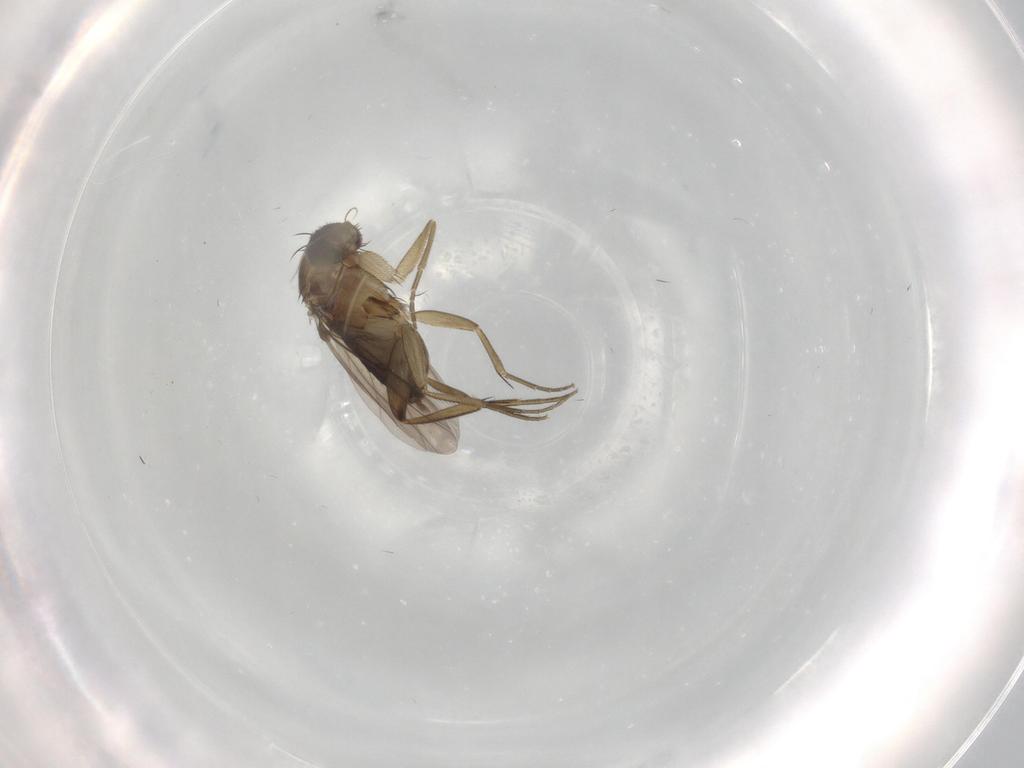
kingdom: Animalia
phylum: Arthropoda
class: Insecta
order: Diptera
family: Phoridae
